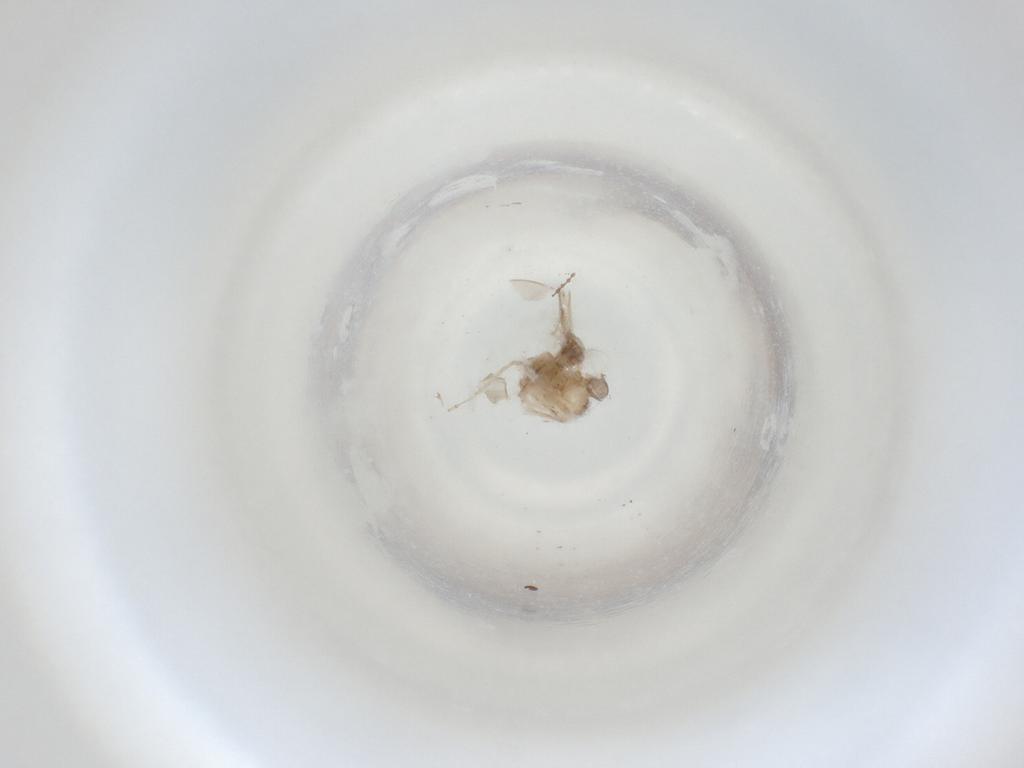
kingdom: Animalia
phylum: Arthropoda
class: Insecta
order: Diptera
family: Cecidomyiidae
